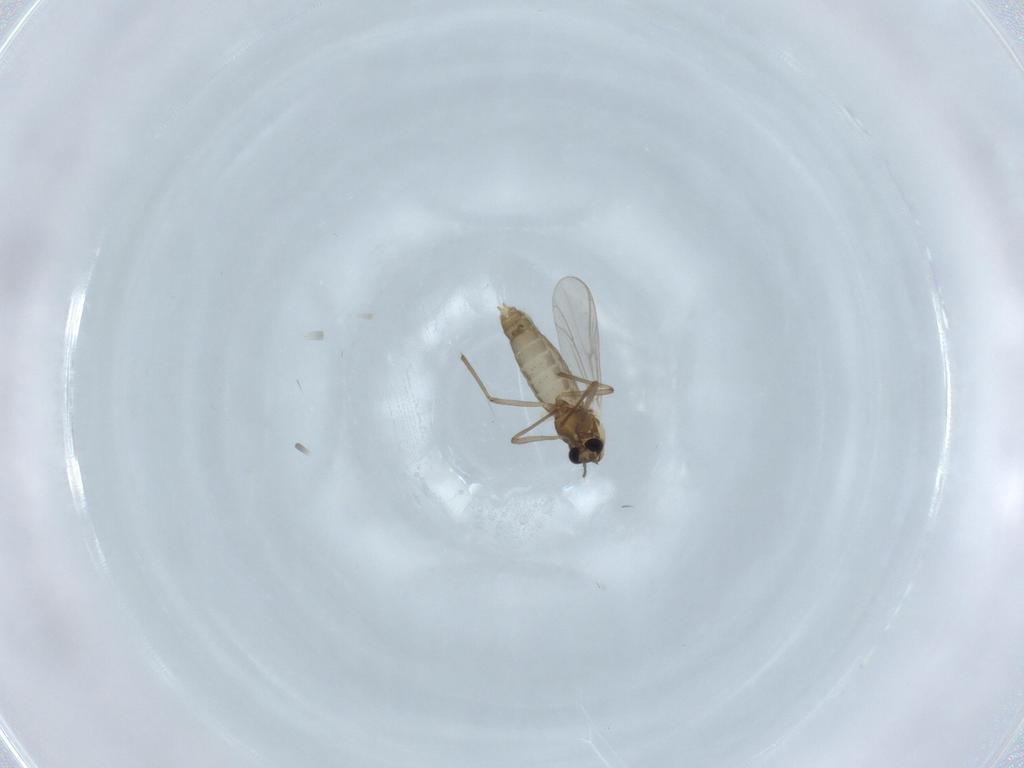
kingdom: Animalia
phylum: Arthropoda
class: Insecta
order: Diptera
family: Chironomidae
